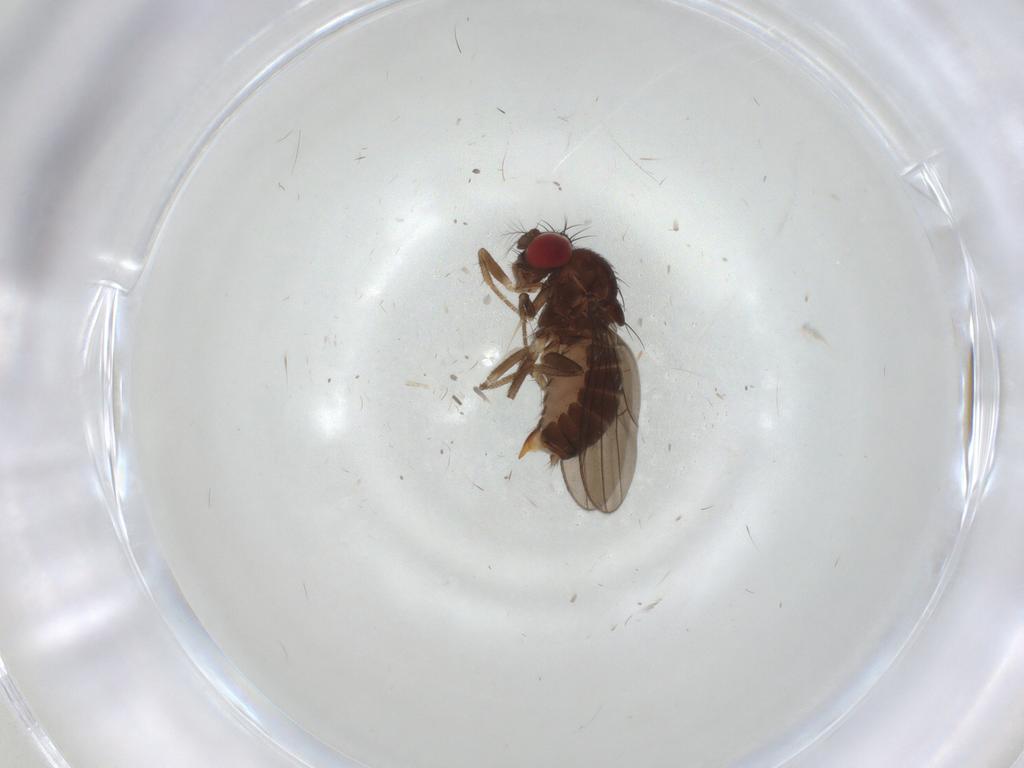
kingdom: Animalia
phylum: Arthropoda
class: Insecta
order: Diptera
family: Drosophilidae
